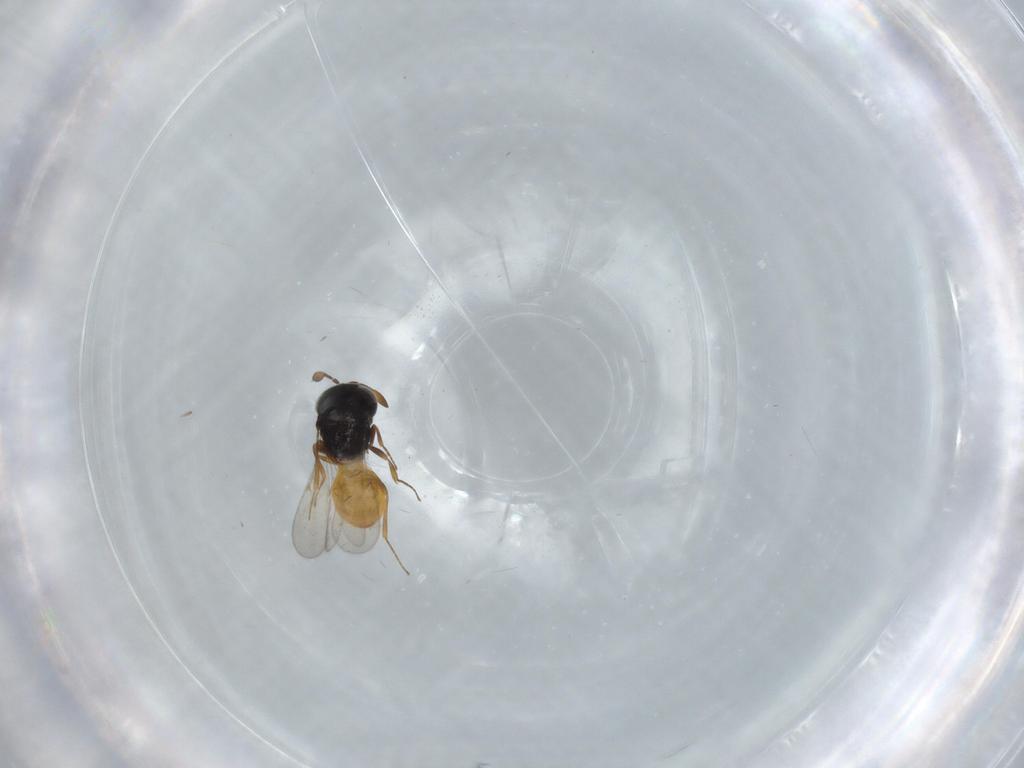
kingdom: Animalia
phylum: Arthropoda
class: Insecta
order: Hymenoptera
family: Scelionidae
